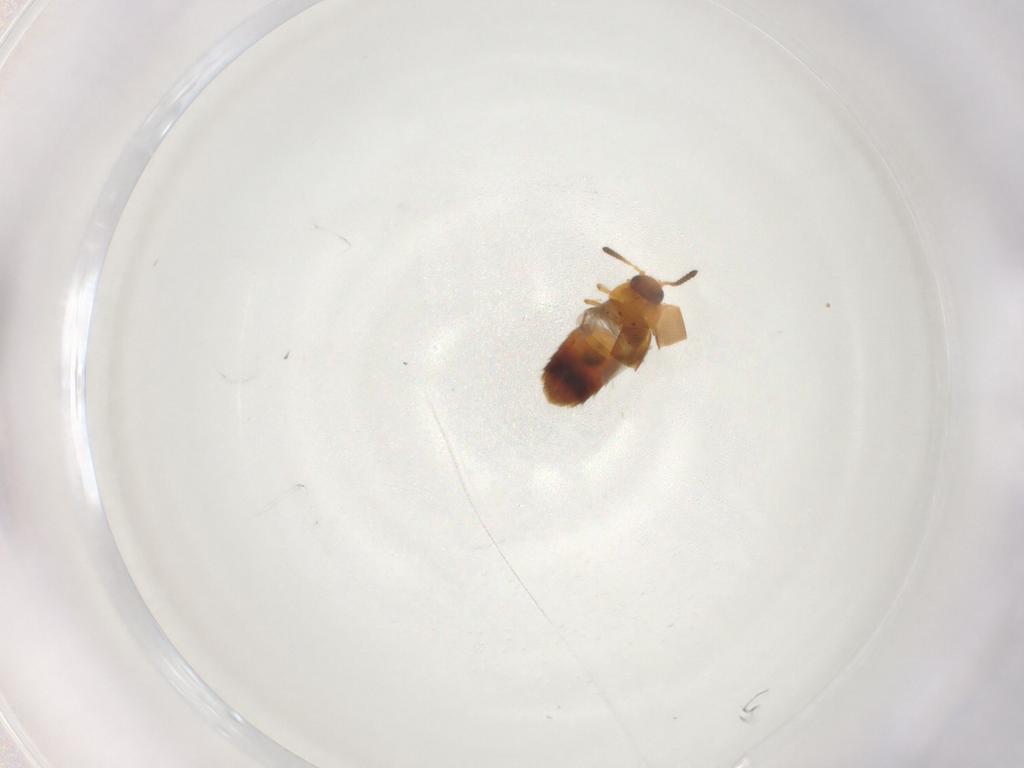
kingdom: Animalia
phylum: Arthropoda
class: Insecta
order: Coleoptera
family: Staphylinidae
